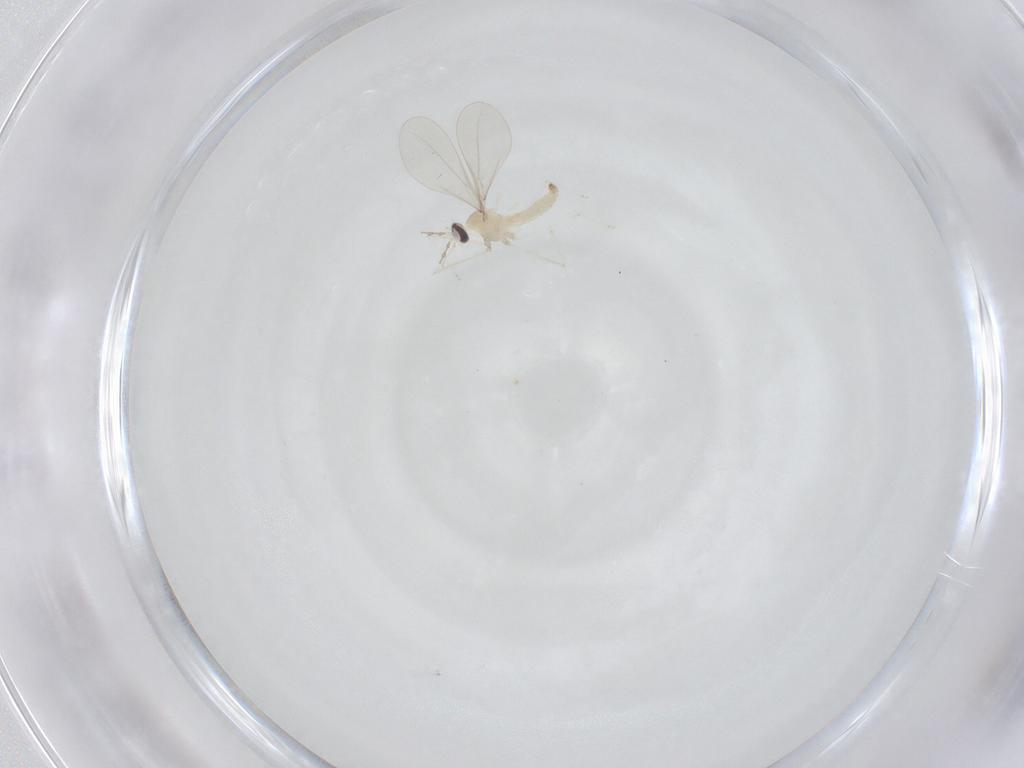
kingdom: Animalia
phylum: Arthropoda
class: Insecta
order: Diptera
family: Cecidomyiidae
